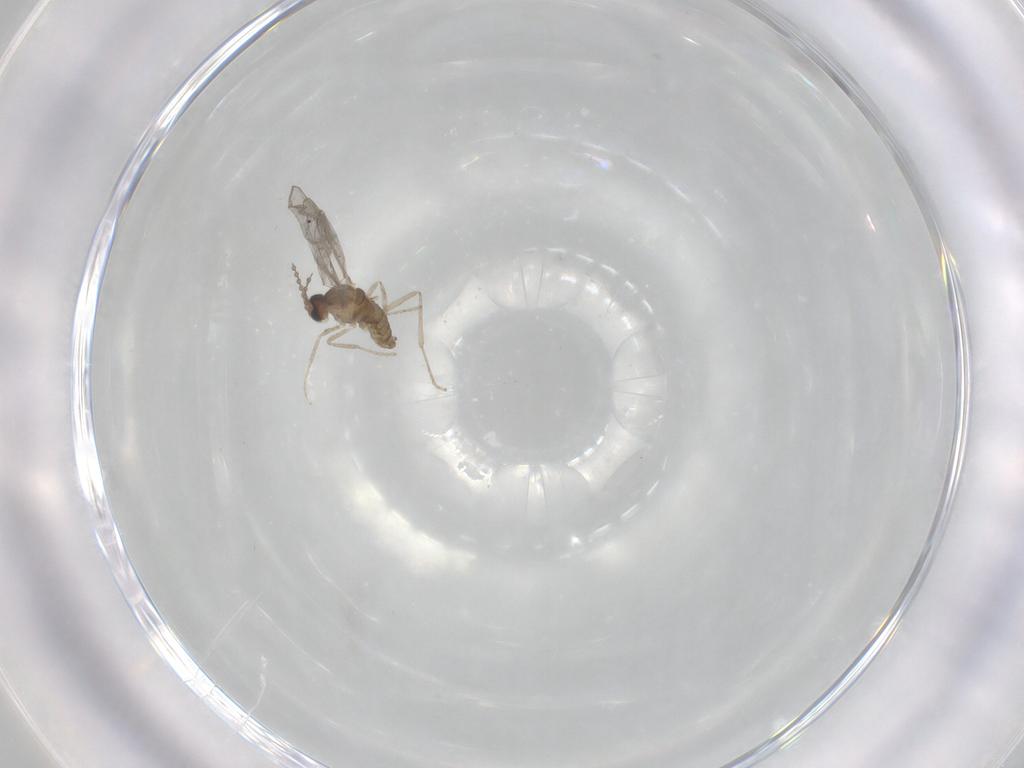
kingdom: Animalia
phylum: Arthropoda
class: Insecta
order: Diptera
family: Cecidomyiidae
